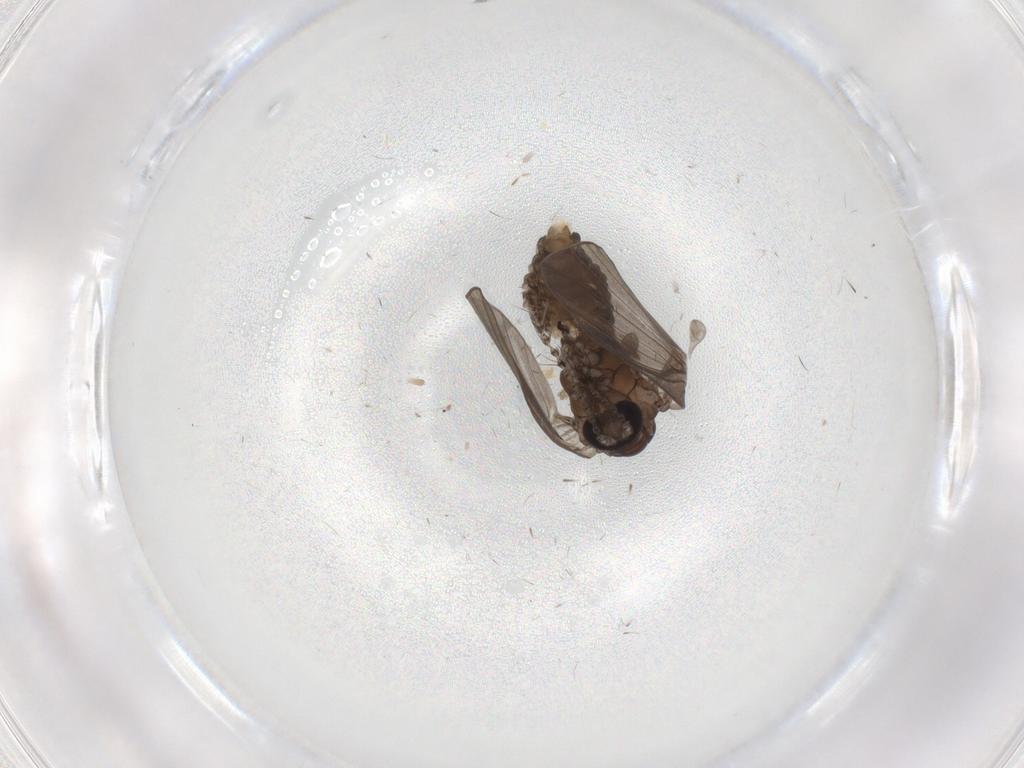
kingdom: Animalia
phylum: Arthropoda
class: Insecta
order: Diptera
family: Psychodidae
